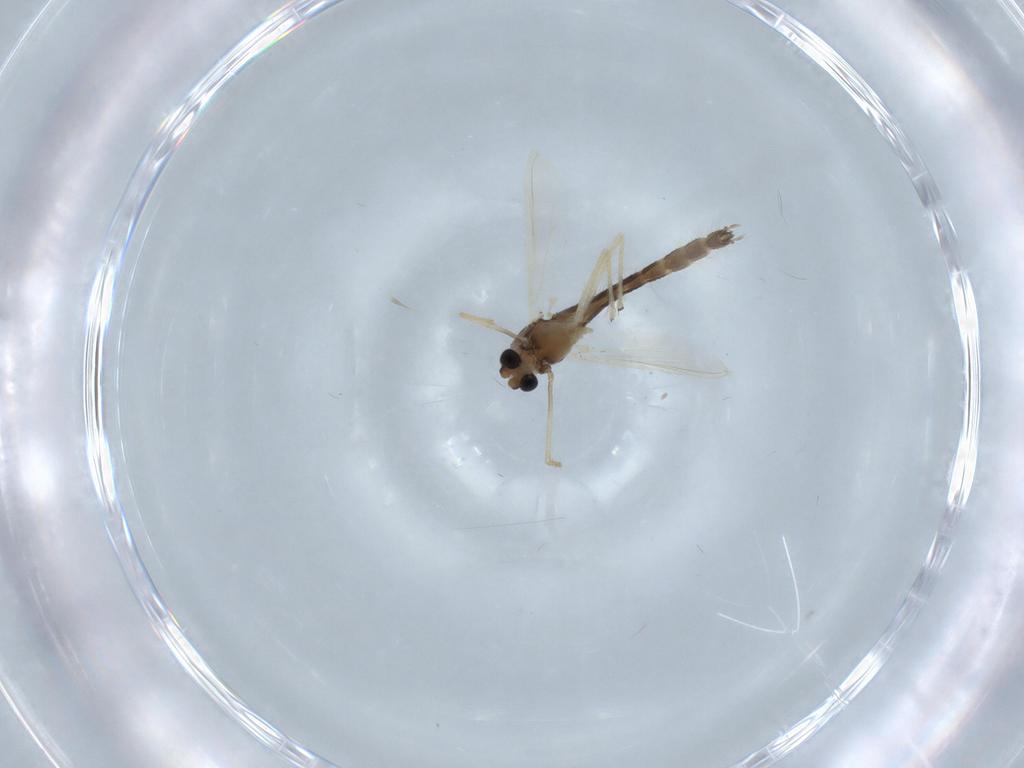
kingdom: Animalia
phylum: Arthropoda
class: Insecta
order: Diptera
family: Chironomidae
